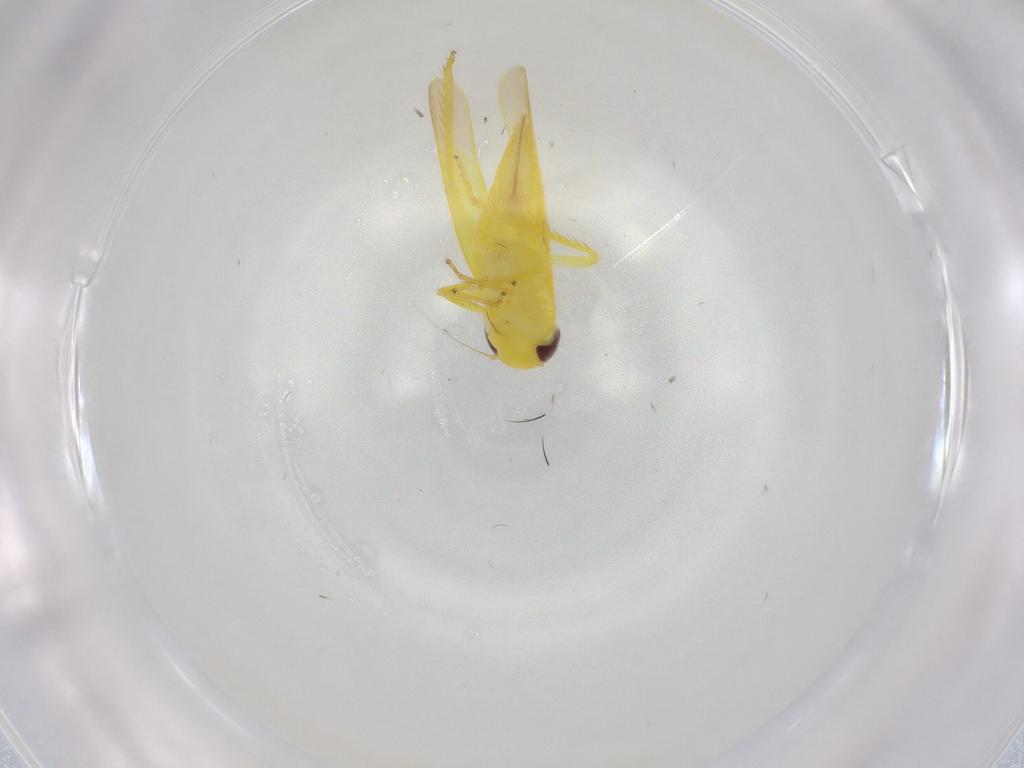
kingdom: Animalia
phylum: Arthropoda
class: Insecta
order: Hemiptera
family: Cicadellidae
